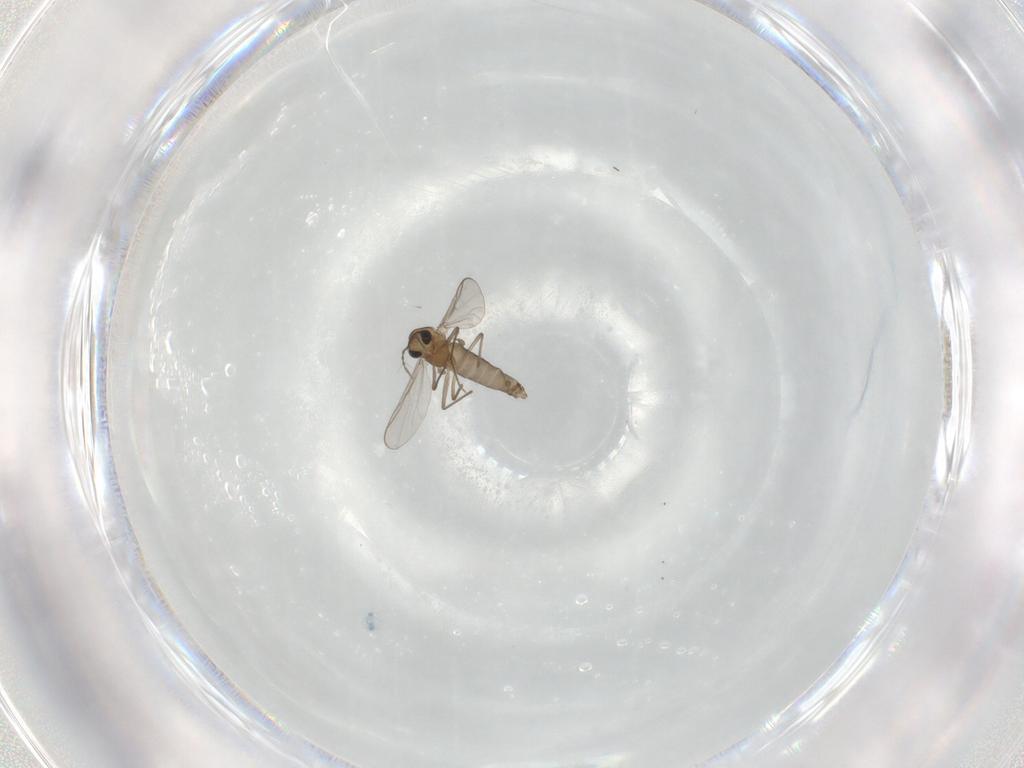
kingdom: Animalia
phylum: Arthropoda
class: Insecta
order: Diptera
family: Chironomidae
